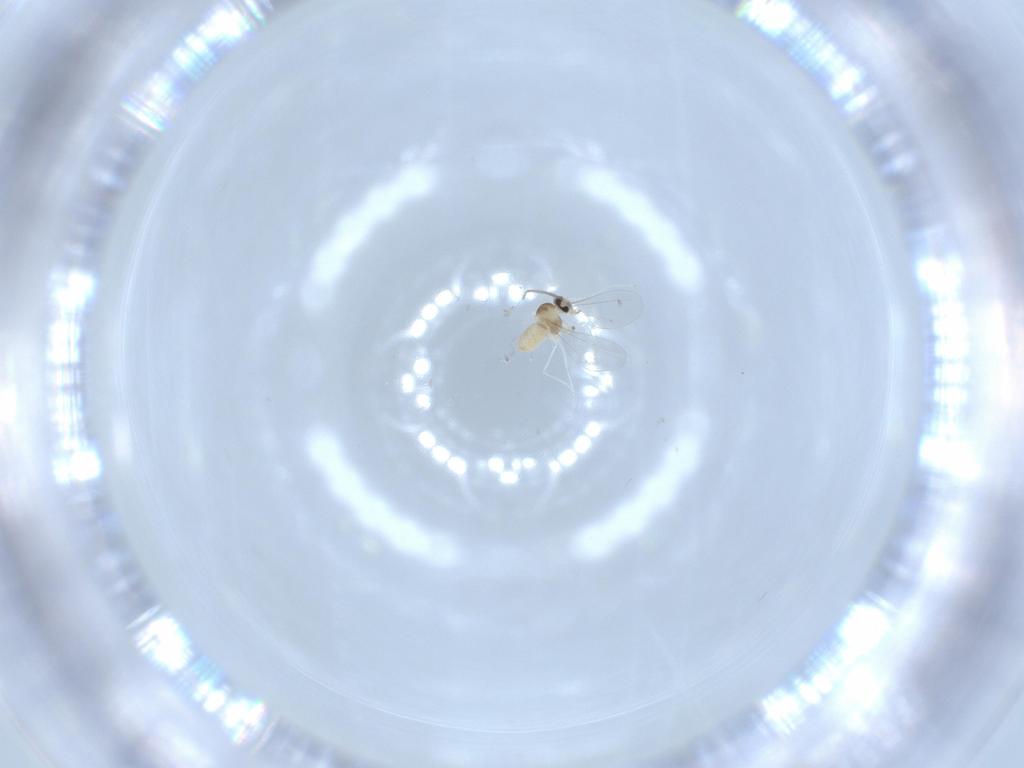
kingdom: Animalia
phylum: Arthropoda
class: Insecta
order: Diptera
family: Cecidomyiidae
